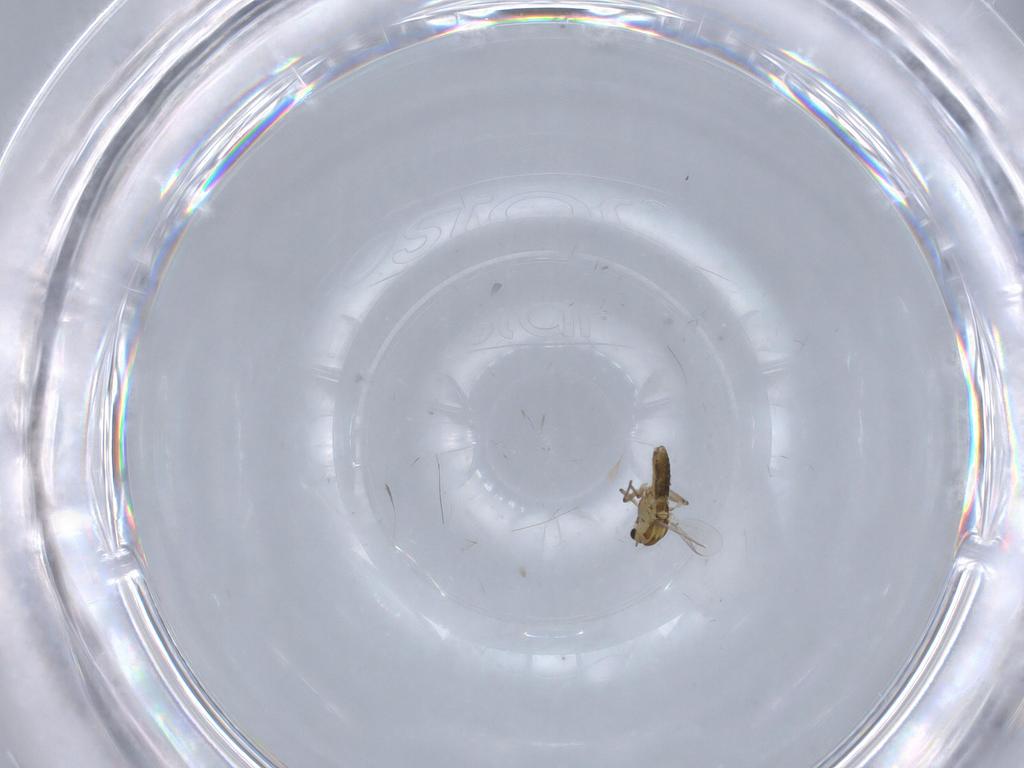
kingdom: Animalia
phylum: Arthropoda
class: Insecta
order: Diptera
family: Chironomidae
